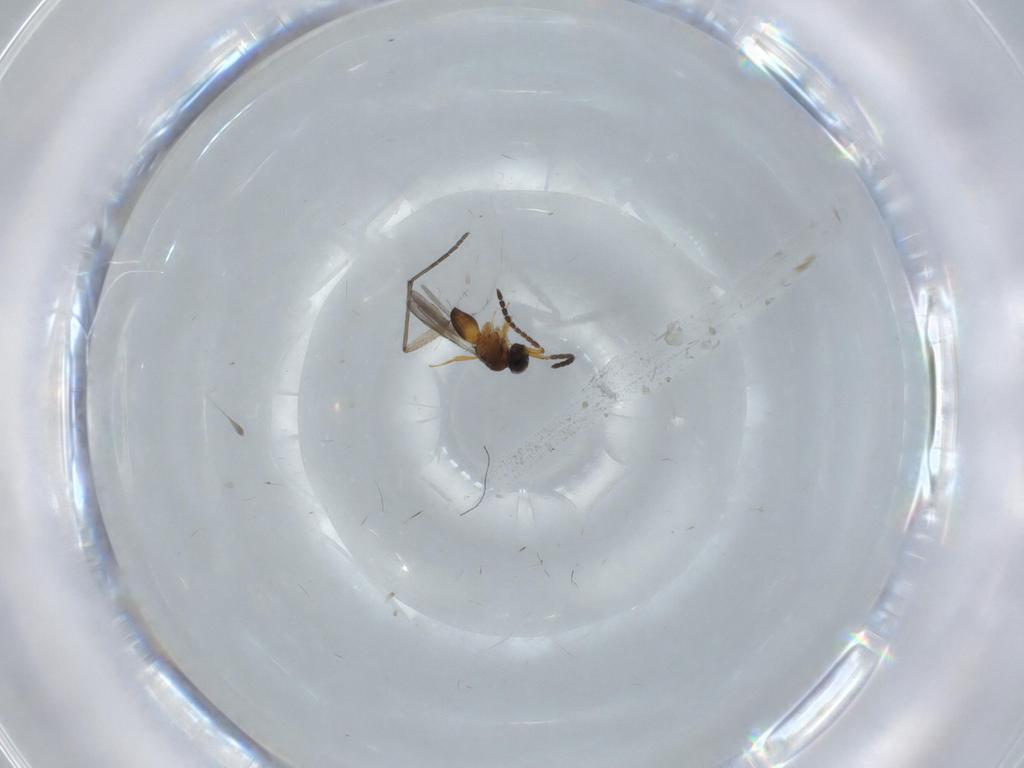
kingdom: Animalia
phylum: Arthropoda
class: Insecta
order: Hymenoptera
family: Ceraphronidae
